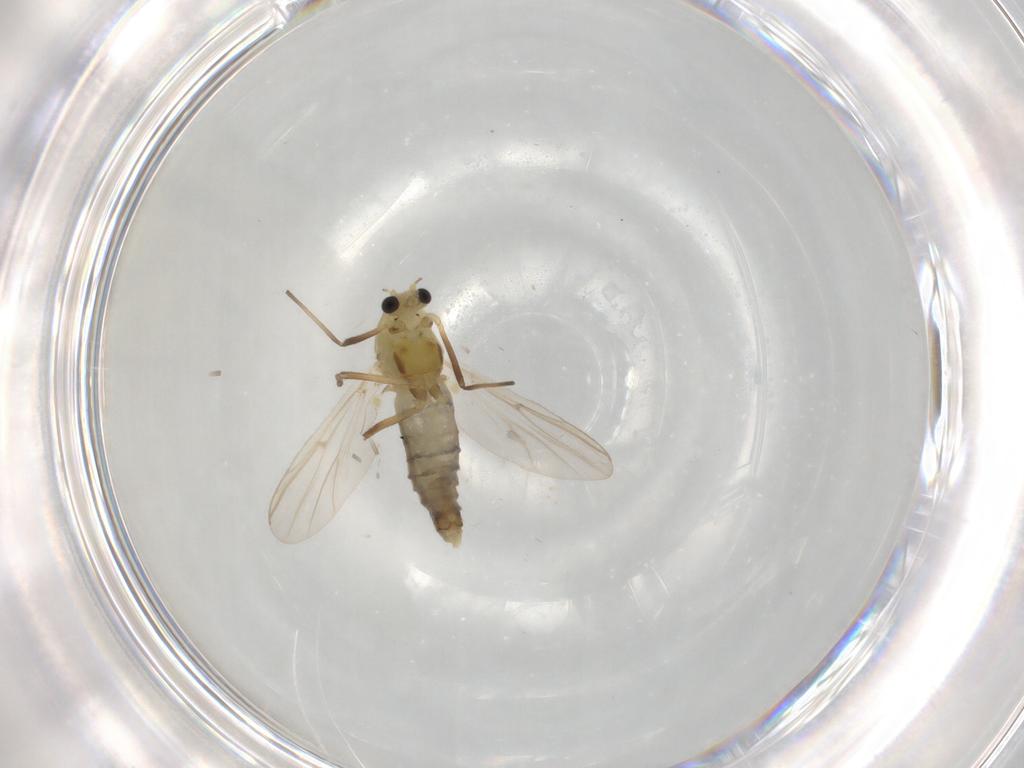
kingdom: Animalia
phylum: Arthropoda
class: Insecta
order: Diptera
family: Chironomidae
